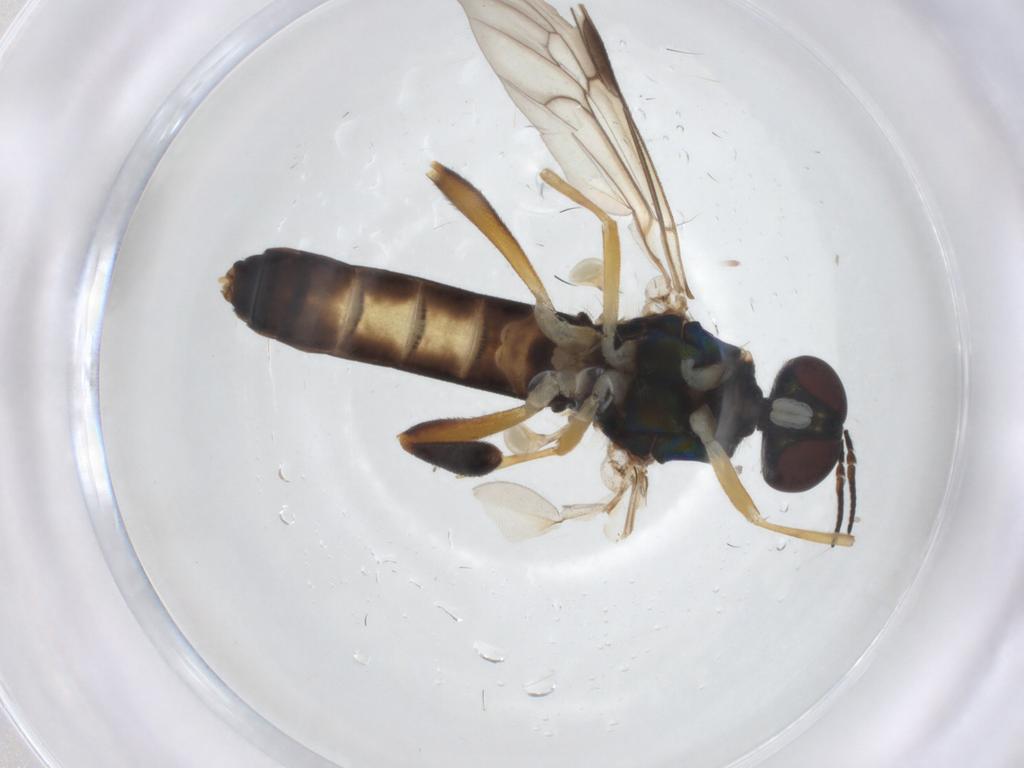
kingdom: Animalia
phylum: Arthropoda
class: Insecta
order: Diptera
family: Stratiomyidae
